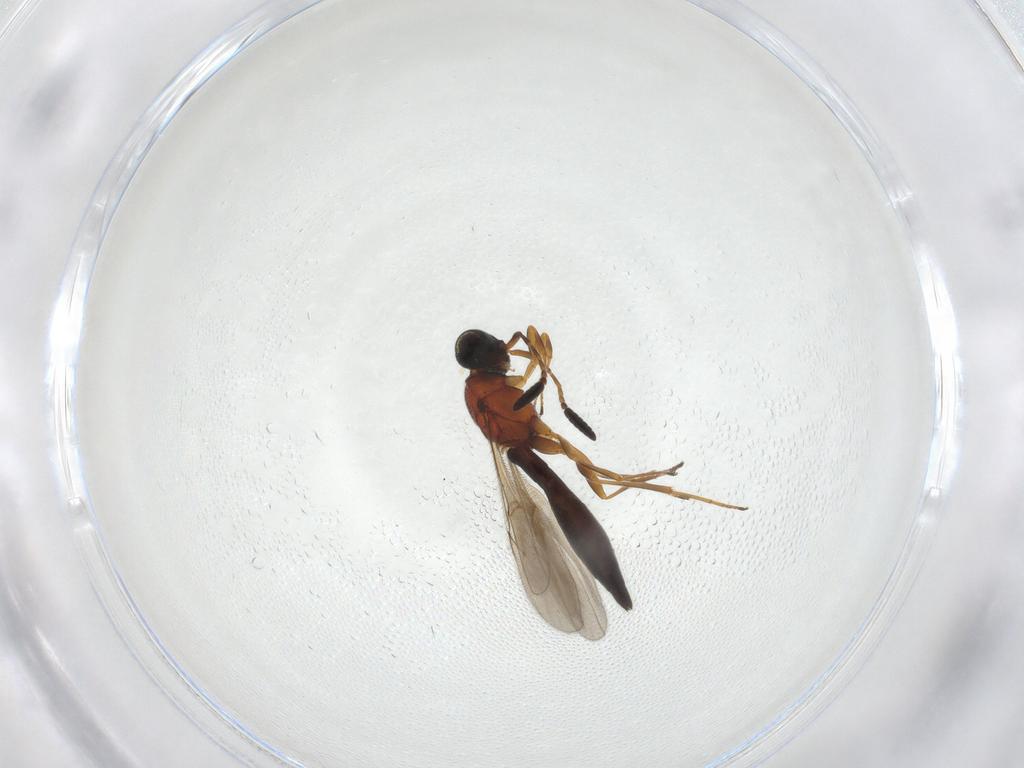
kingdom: Animalia
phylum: Arthropoda
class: Insecta
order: Hymenoptera
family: Scelionidae
